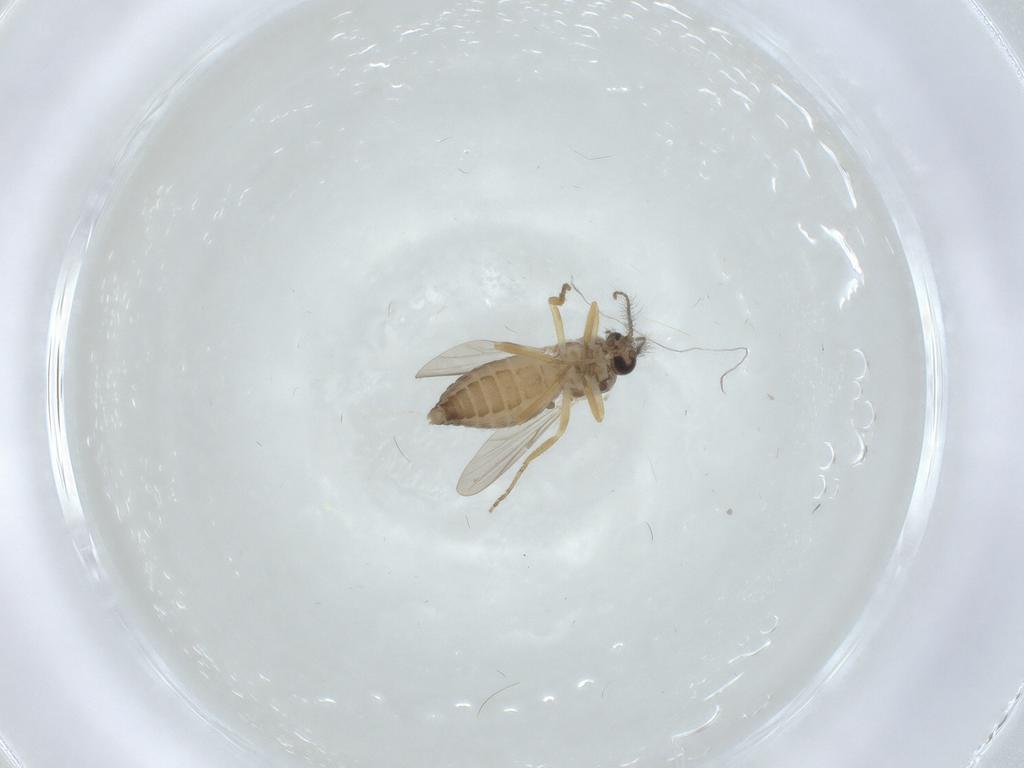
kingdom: Animalia
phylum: Arthropoda
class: Insecta
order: Diptera
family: Ceratopogonidae
